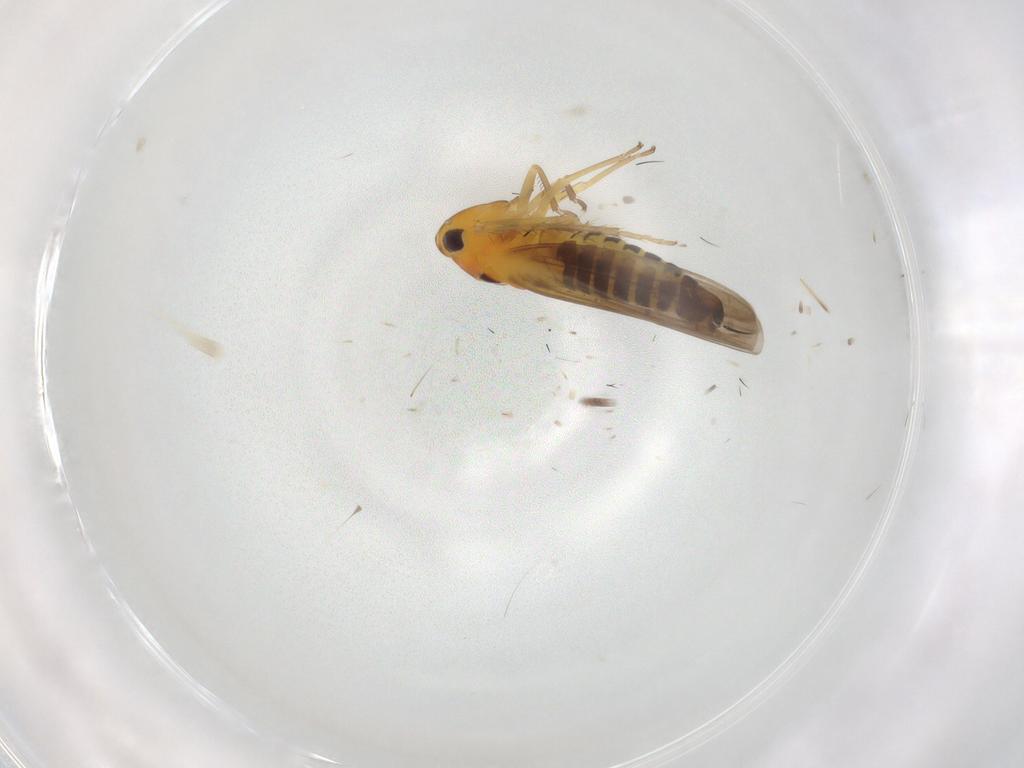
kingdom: Animalia
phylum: Arthropoda
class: Insecta
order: Hemiptera
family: Cicadellidae
